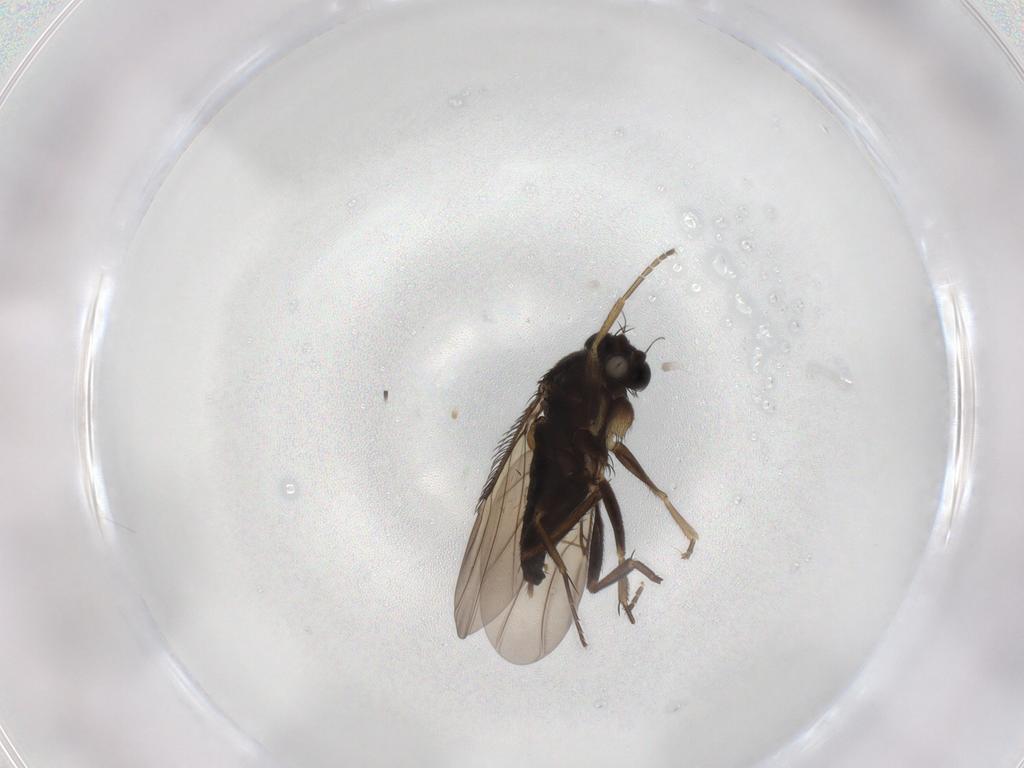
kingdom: Animalia
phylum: Arthropoda
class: Insecta
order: Diptera
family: Phoridae
